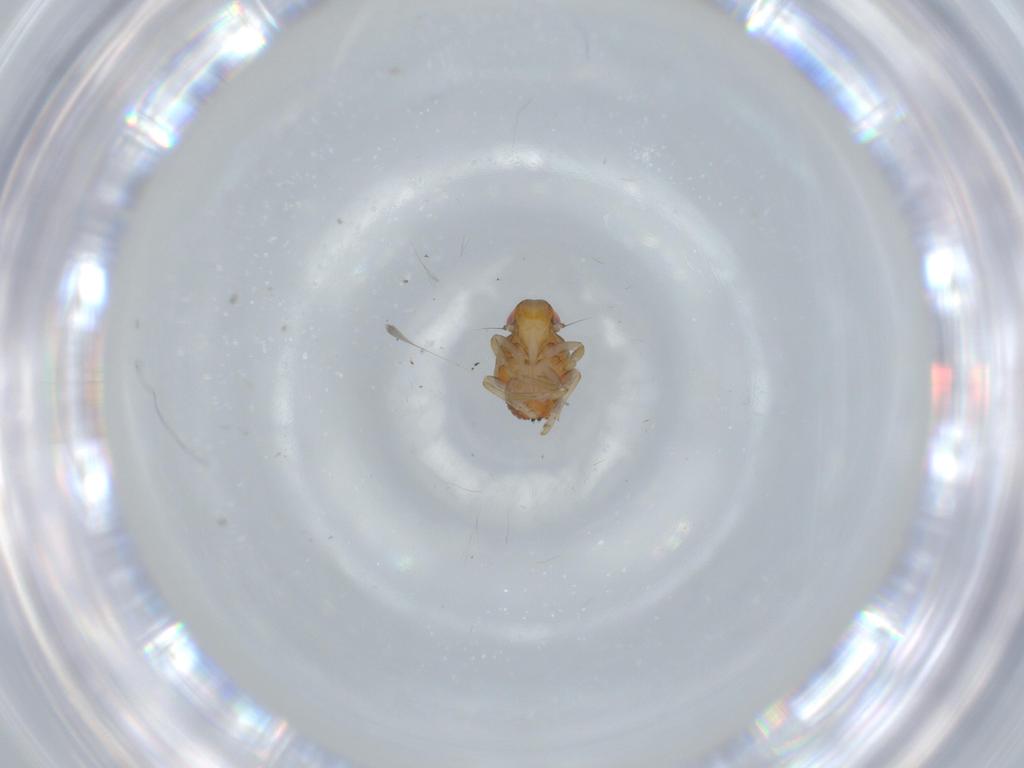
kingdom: Animalia
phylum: Arthropoda
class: Insecta
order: Hemiptera
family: Issidae
